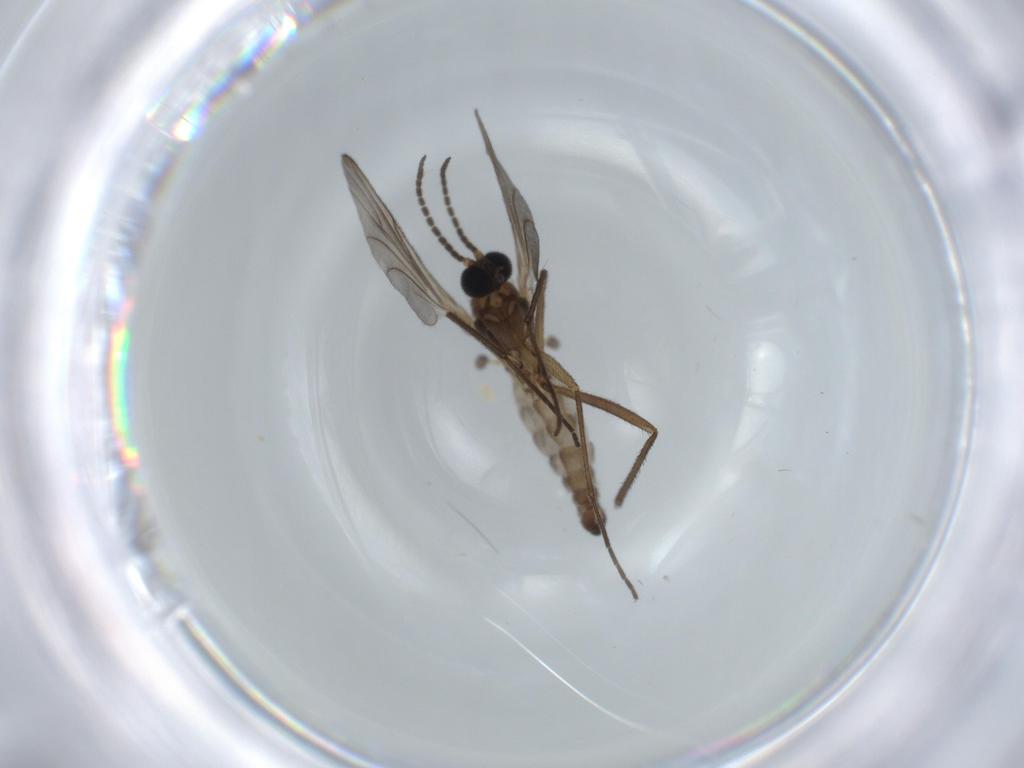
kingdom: Animalia
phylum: Arthropoda
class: Insecta
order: Diptera
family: Sciaridae
